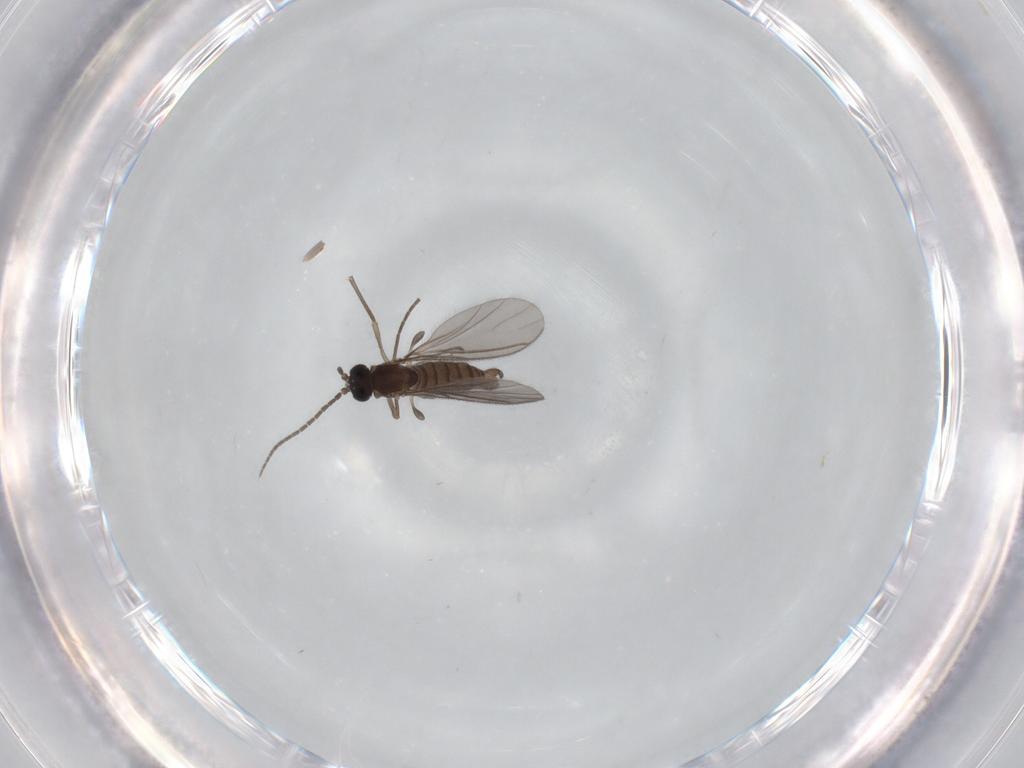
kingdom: Animalia
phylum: Arthropoda
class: Insecta
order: Diptera
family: Sciaridae
